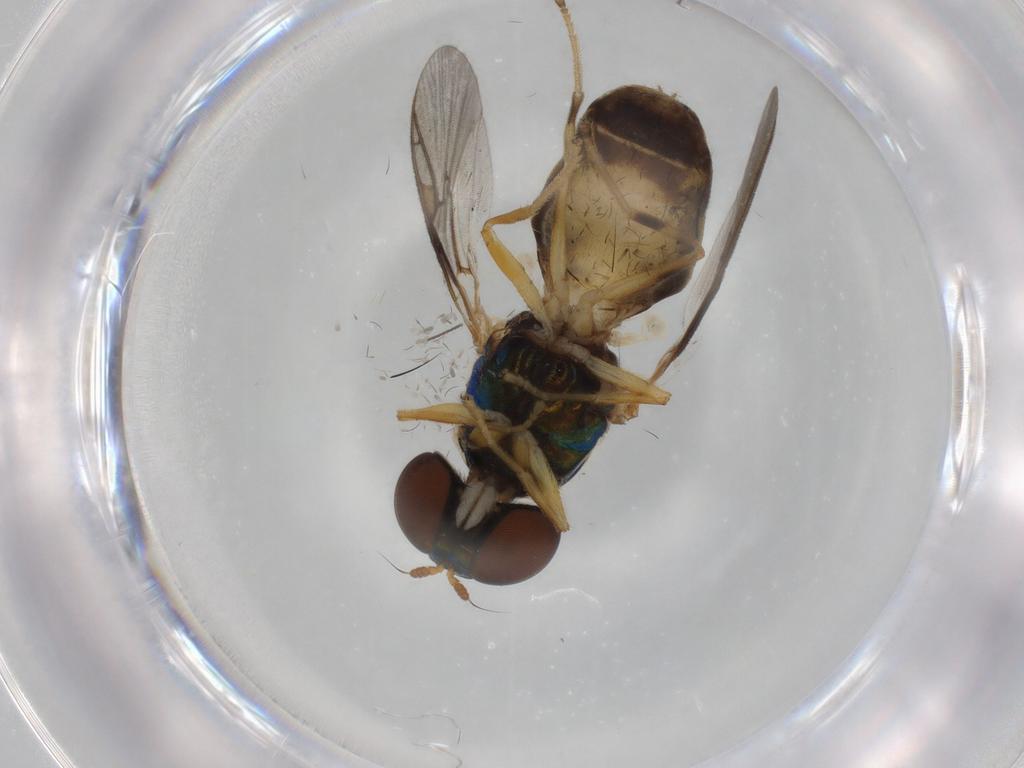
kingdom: Animalia
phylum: Arthropoda
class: Insecta
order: Diptera
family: Cecidomyiidae
